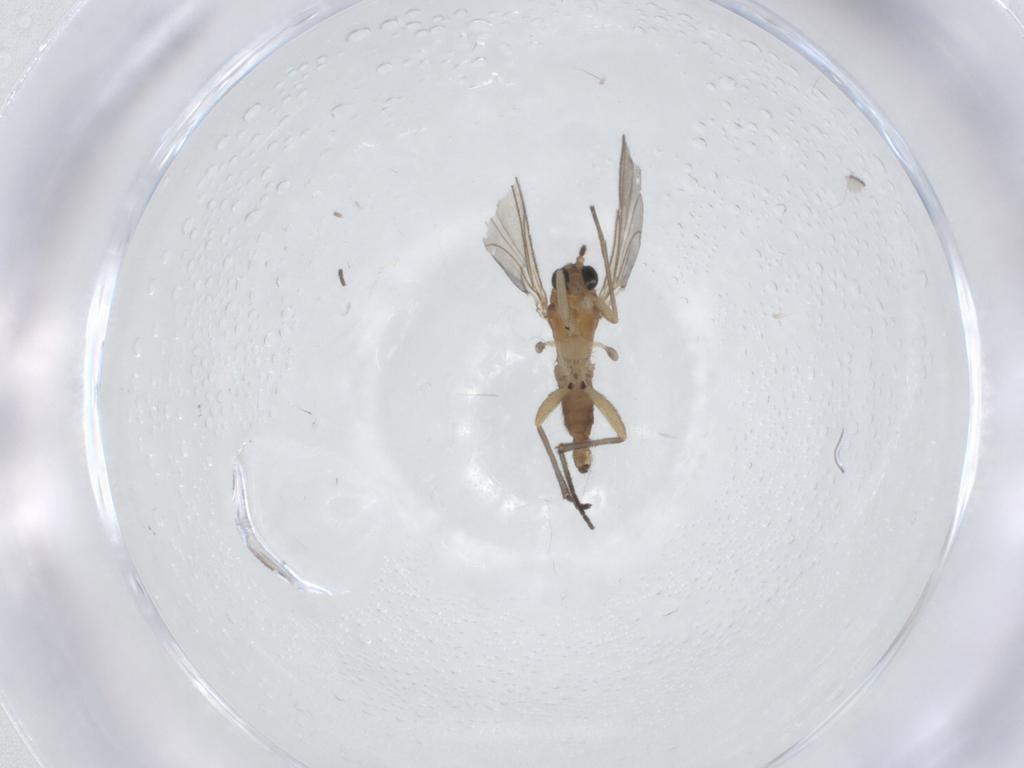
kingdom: Animalia
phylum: Arthropoda
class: Insecta
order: Diptera
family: Sciaridae
